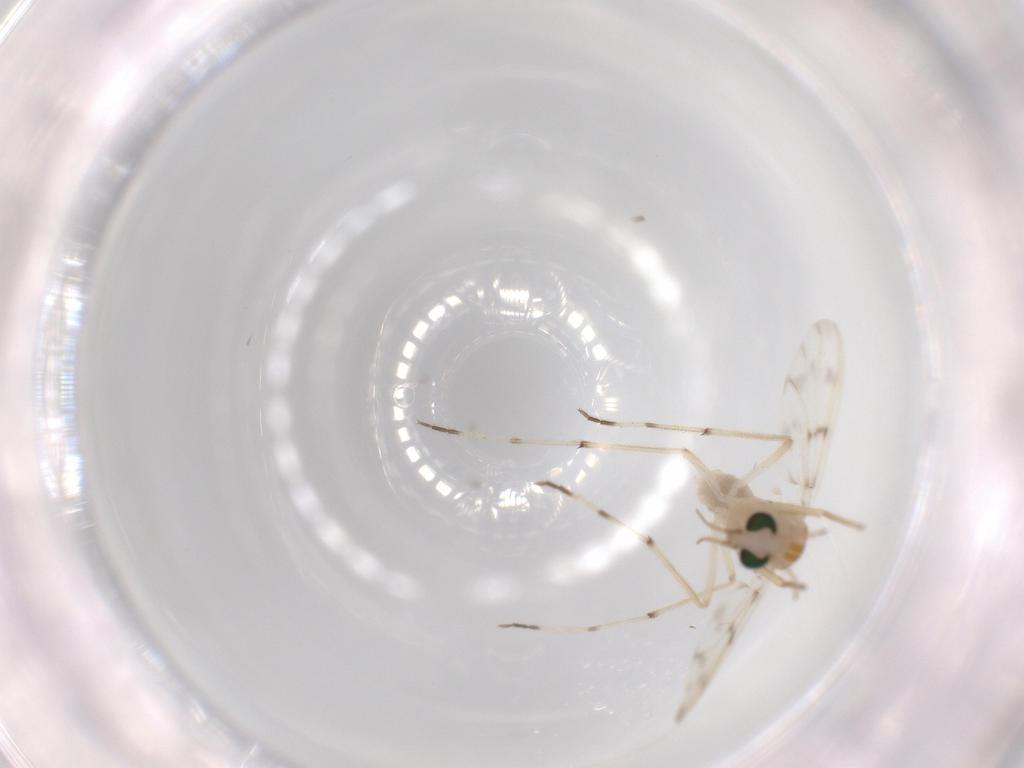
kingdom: Animalia
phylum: Arthropoda
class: Insecta
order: Diptera
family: Chironomidae
